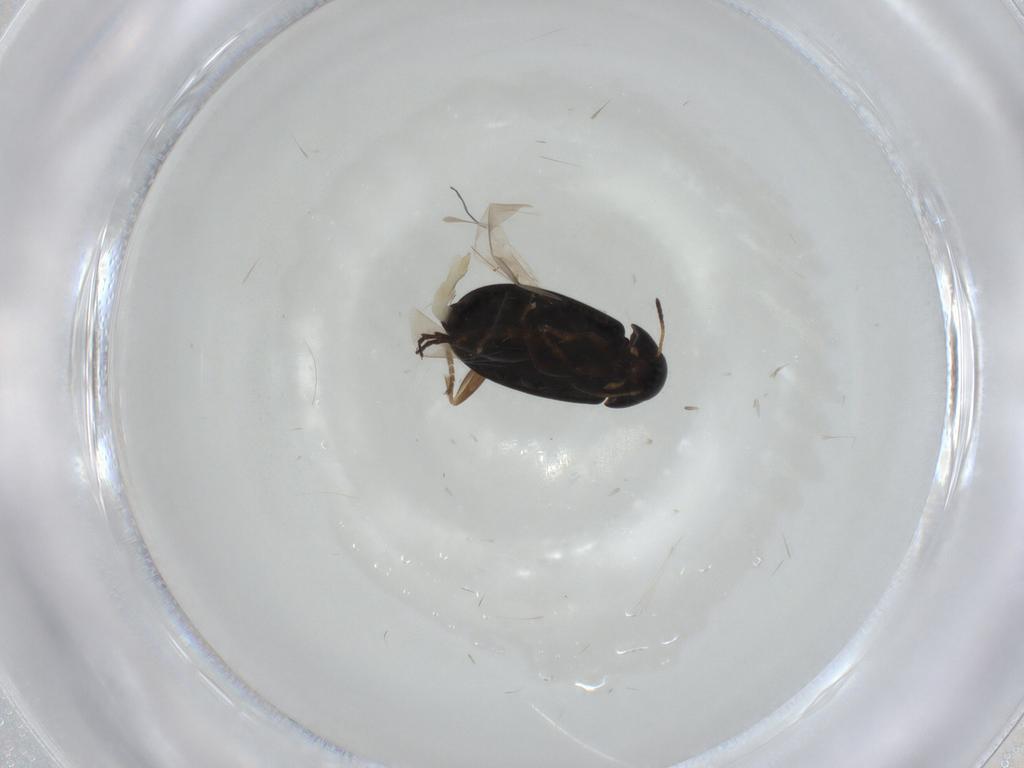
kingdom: Animalia
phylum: Arthropoda
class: Insecta
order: Coleoptera
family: Scraptiidae
